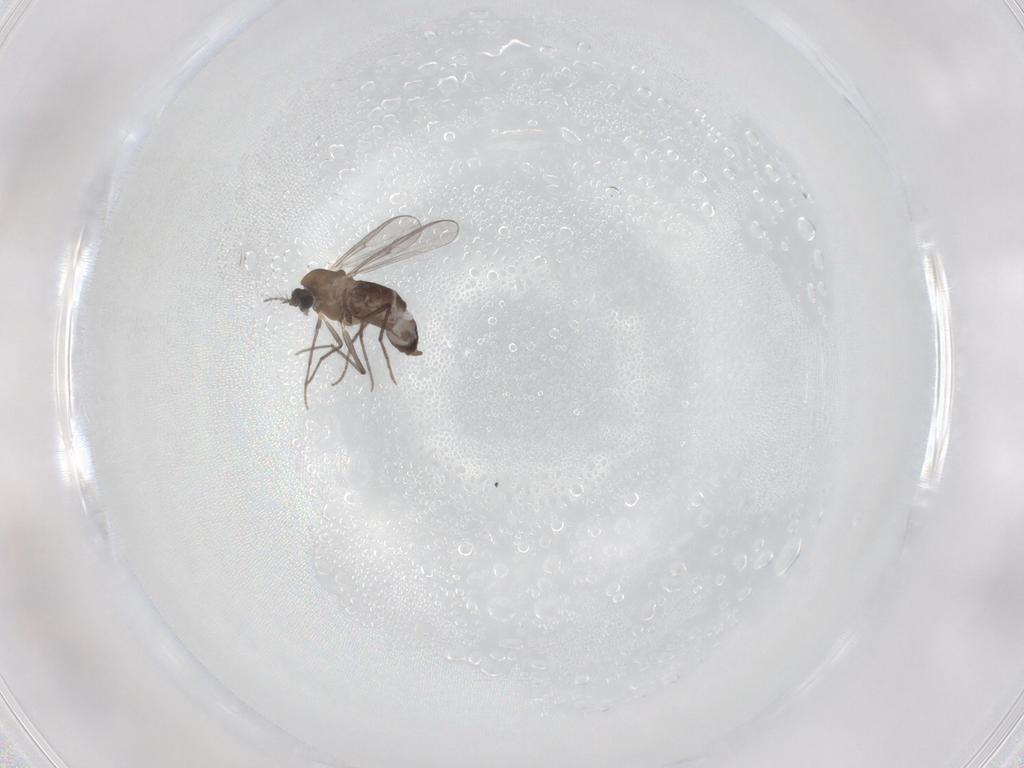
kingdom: Animalia
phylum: Arthropoda
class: Insecta
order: Diptera
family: Chironomidae
